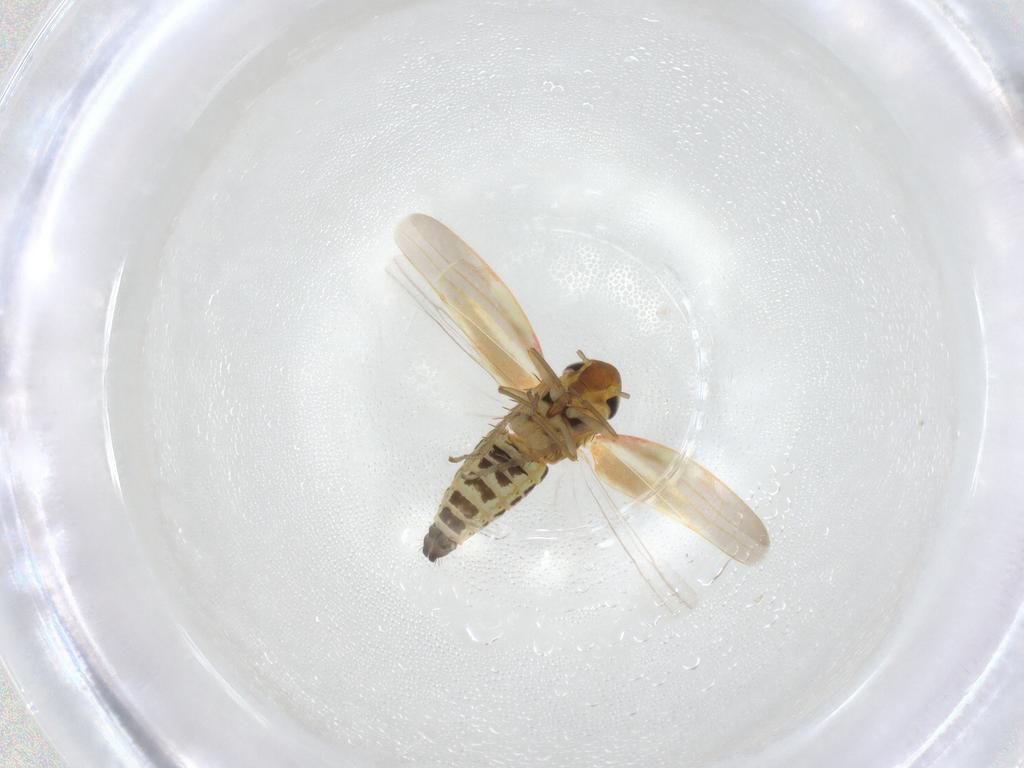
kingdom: Animalia
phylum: Arthropoda
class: Insecta
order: Hemiptera
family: Cicadellidae
